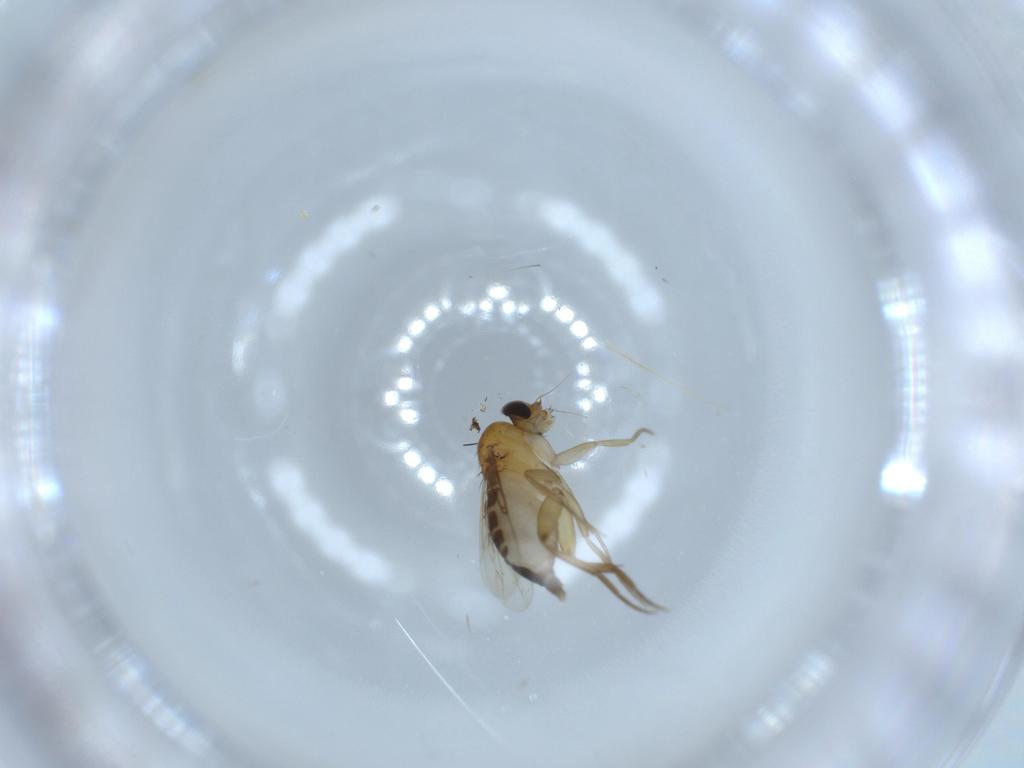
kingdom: Animalia
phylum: Arthropoda
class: Insecta
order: Diptera
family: Phoridae
